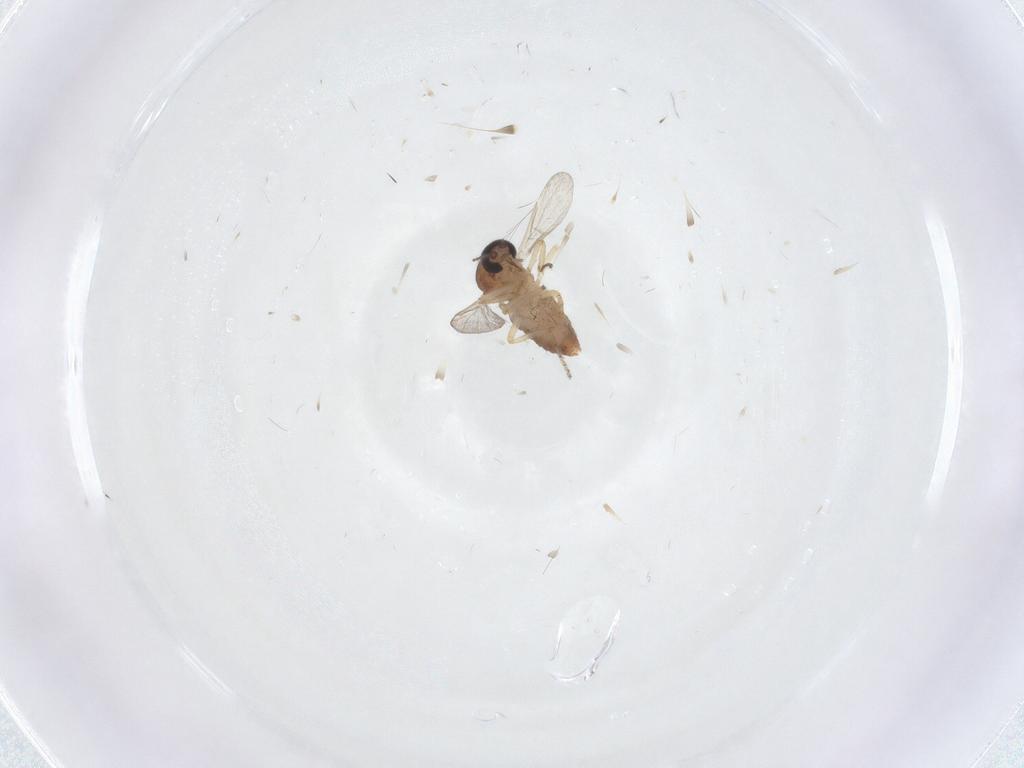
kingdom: Animalia
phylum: Arthropoda
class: Insecta
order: Diptera
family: Ceratopogonidae
